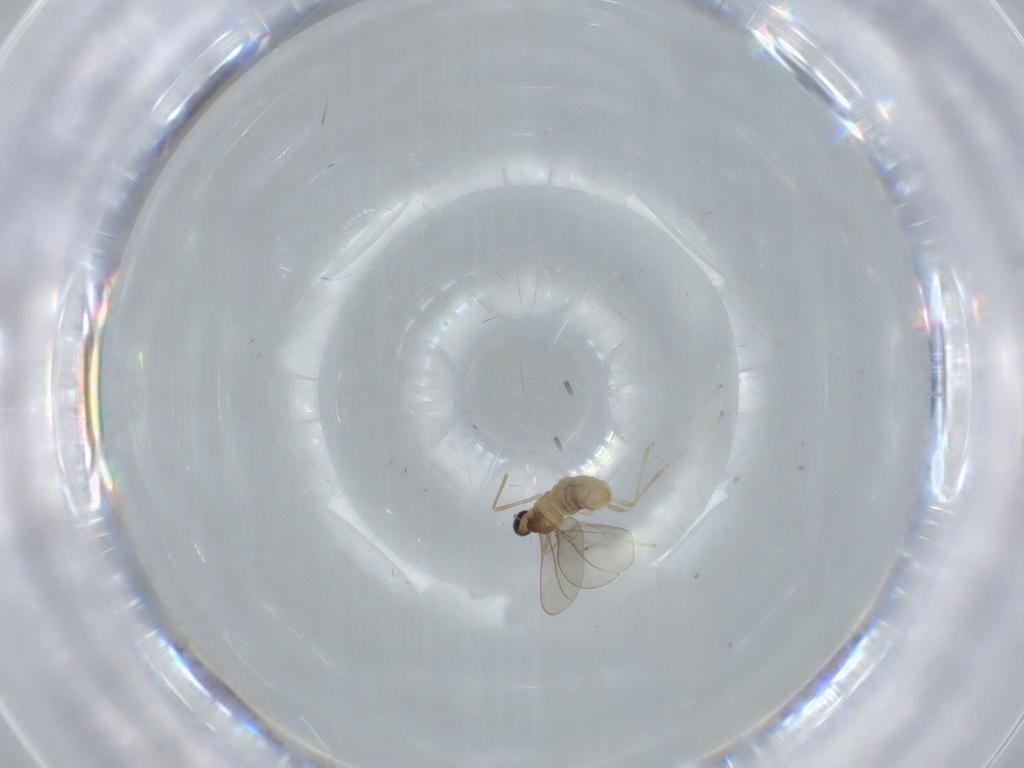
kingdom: Animalia
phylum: Arthropoda
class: Insecta
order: Diptera
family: Cecidomyiidae
